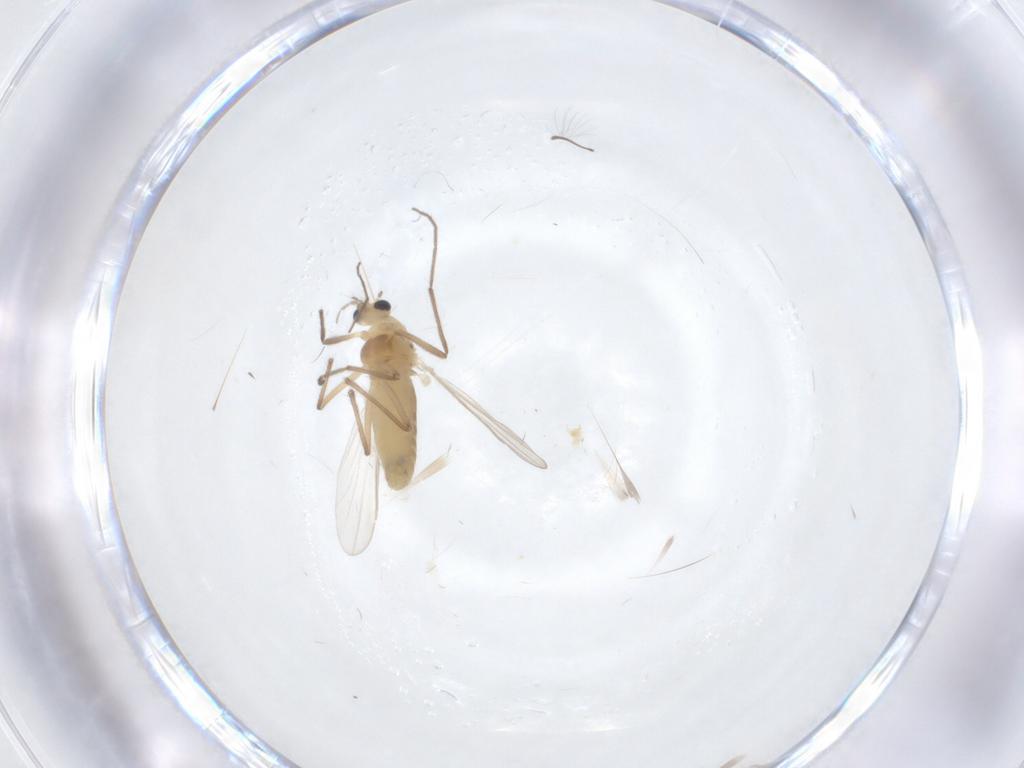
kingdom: Animalia
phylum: Arthropoda
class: Insecta
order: Diptera
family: Chironomidae
